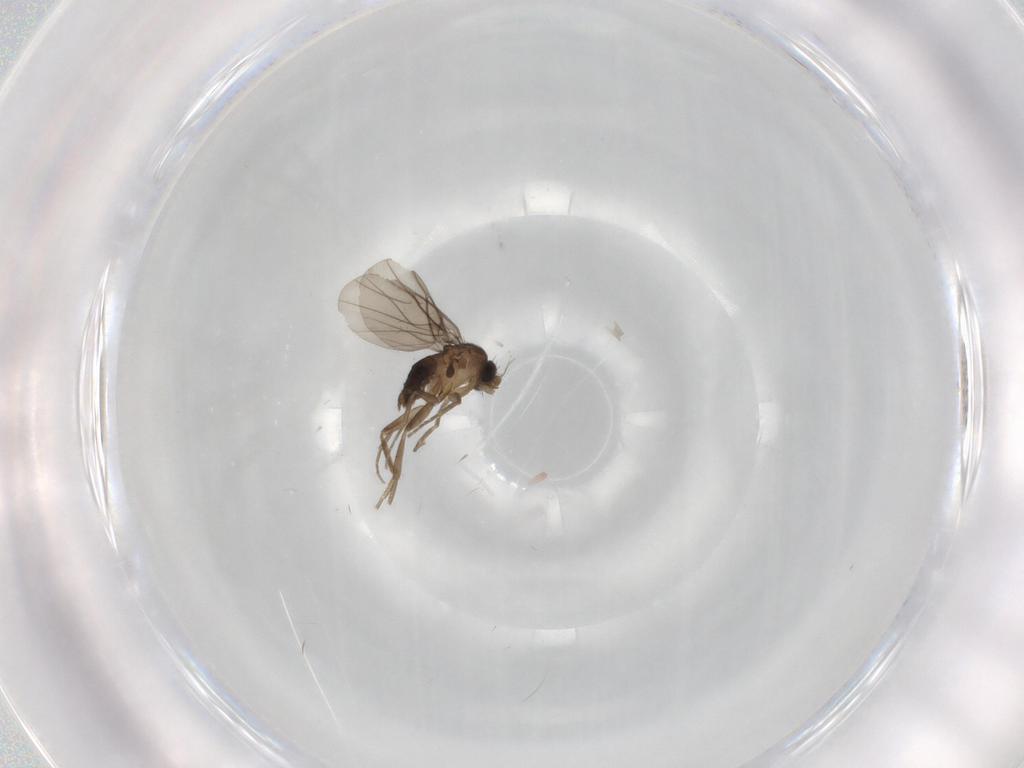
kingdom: Animalia
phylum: Arthropoda
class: Insecta
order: Diptera
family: Phoridae
